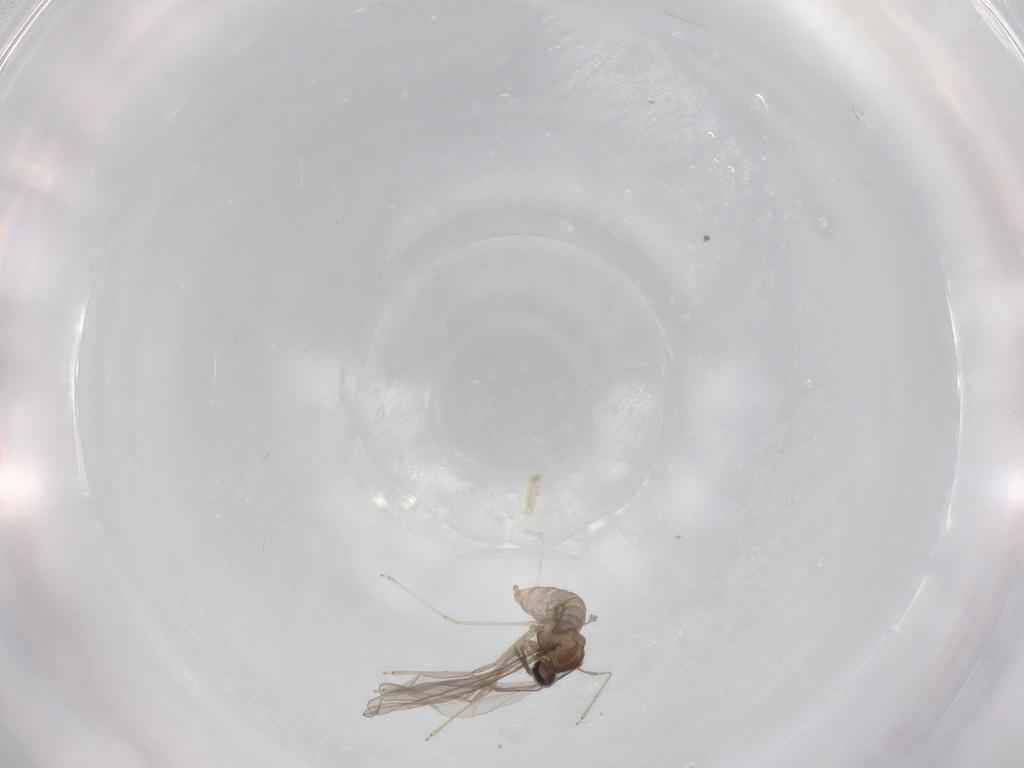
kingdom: Animalia
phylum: Arthropoda
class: Insecta
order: Diptera
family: Cecidomyiidae
